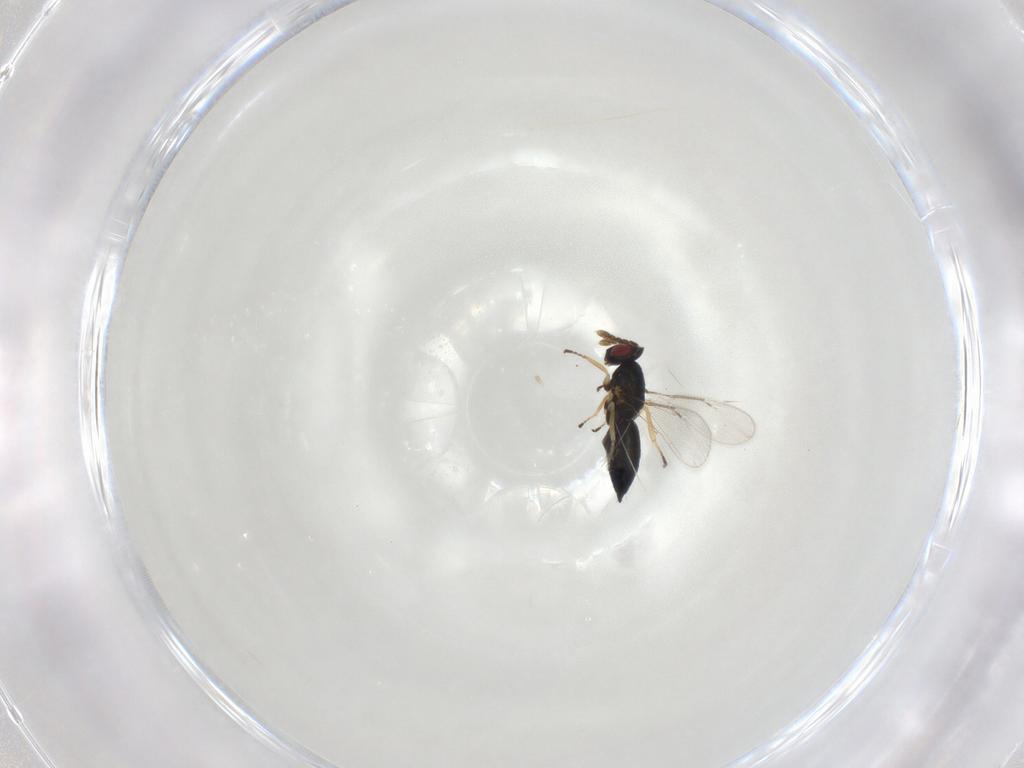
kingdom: Animalia
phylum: Arthropoda
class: Insecta
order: Hymenoptera
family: Eulophidae
